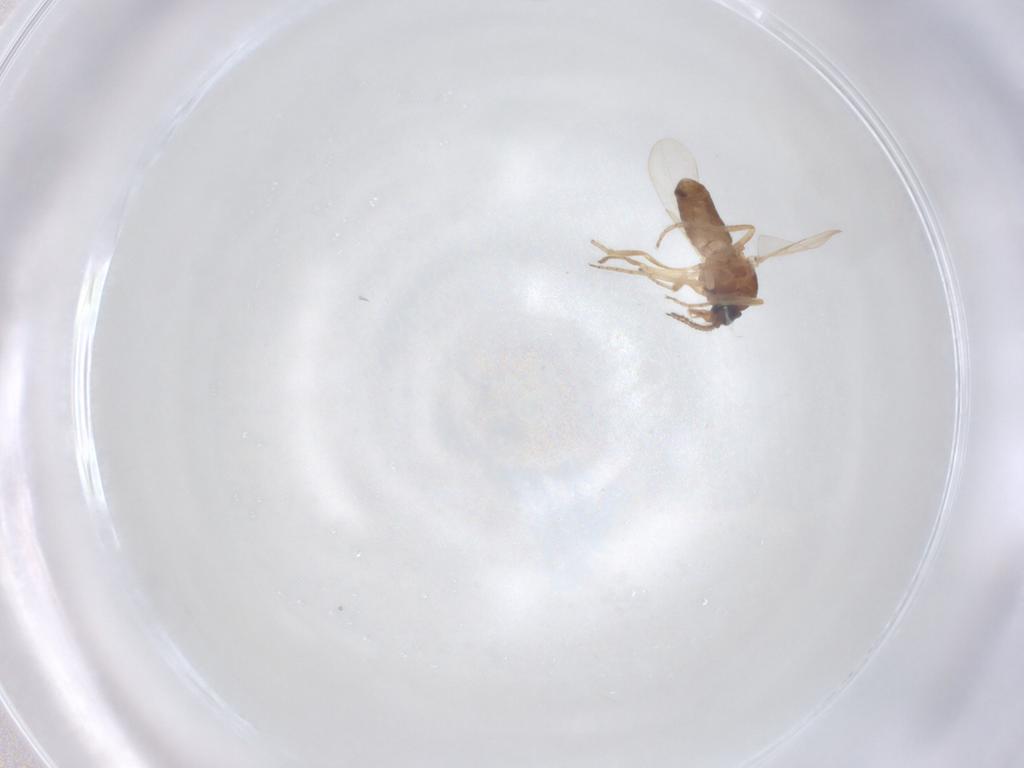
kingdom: Animalia
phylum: Arthropoda
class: Insecta
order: Diptera
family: Ceratopogonidae
